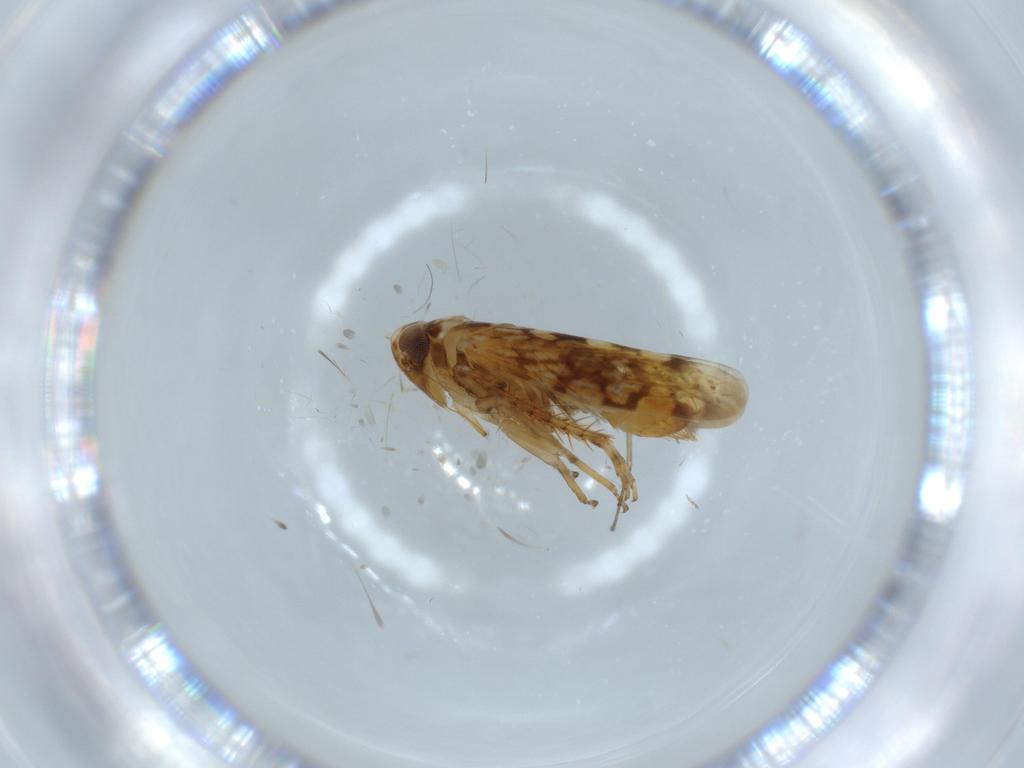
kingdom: Animalia
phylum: Arthropoda
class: Insecta
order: Hemiptera
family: Cicadellidae
